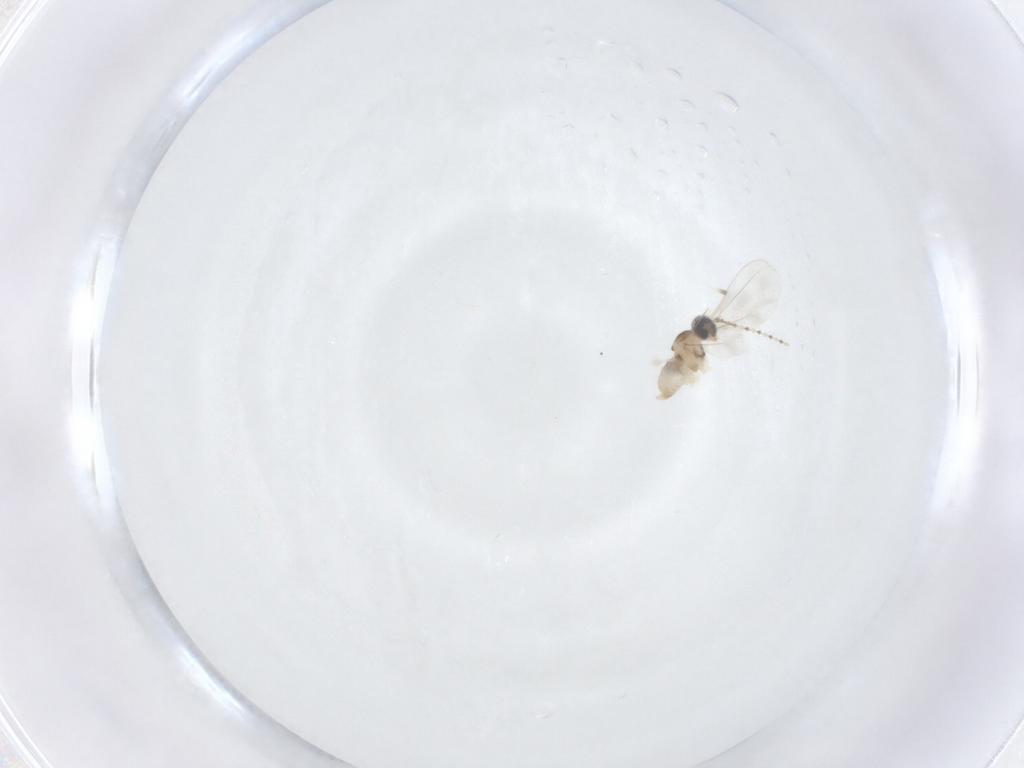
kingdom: Animalia
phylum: Arthropoda
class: Insecta
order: Diptera
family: Cecidomyiidae
